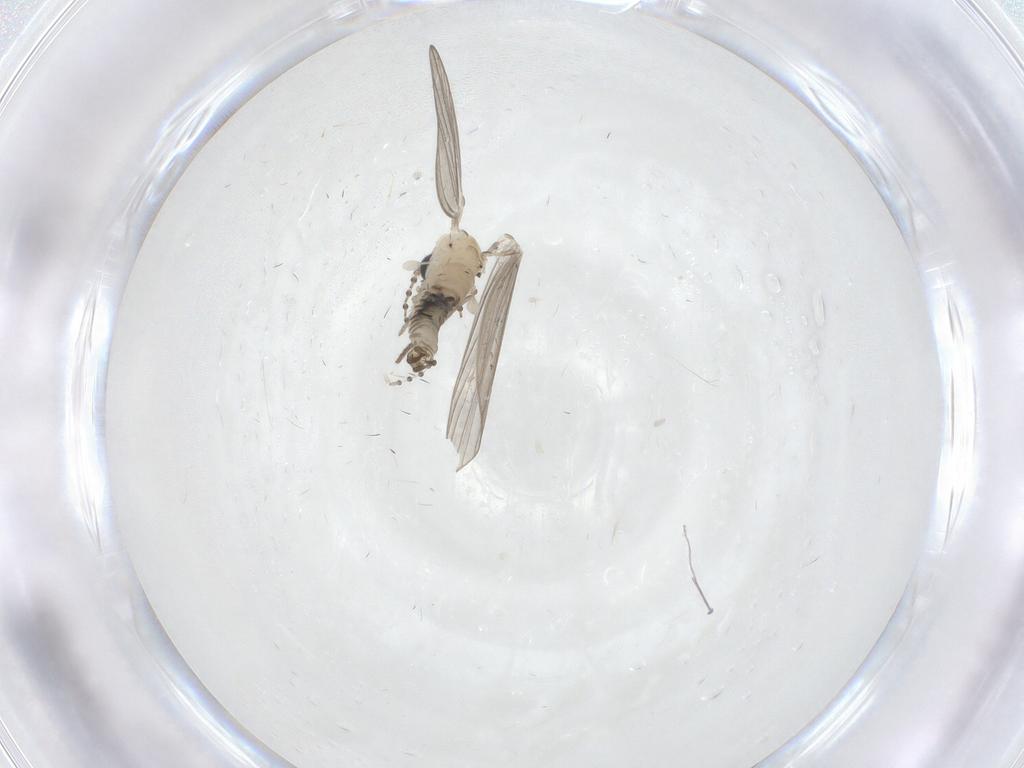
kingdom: Animalia
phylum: Arthropoda
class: Insecta
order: Diptera
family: Psychodidae
